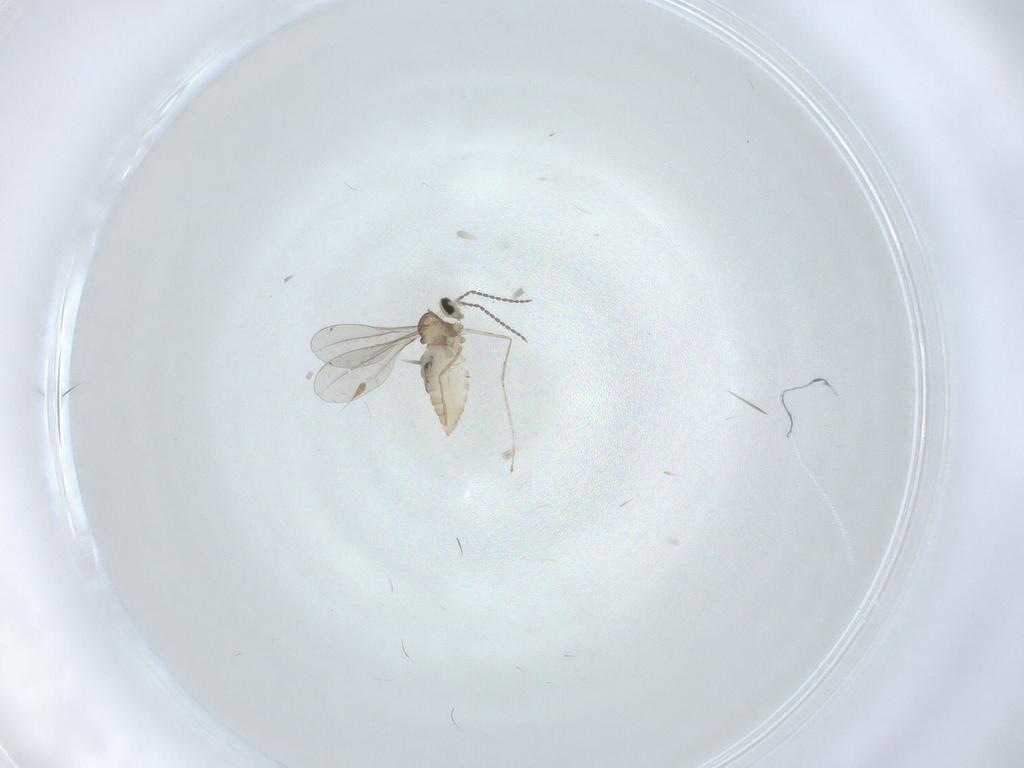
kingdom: Animalia
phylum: Arthropoda
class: Insecta
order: Diptera
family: Cecidomyiidae
